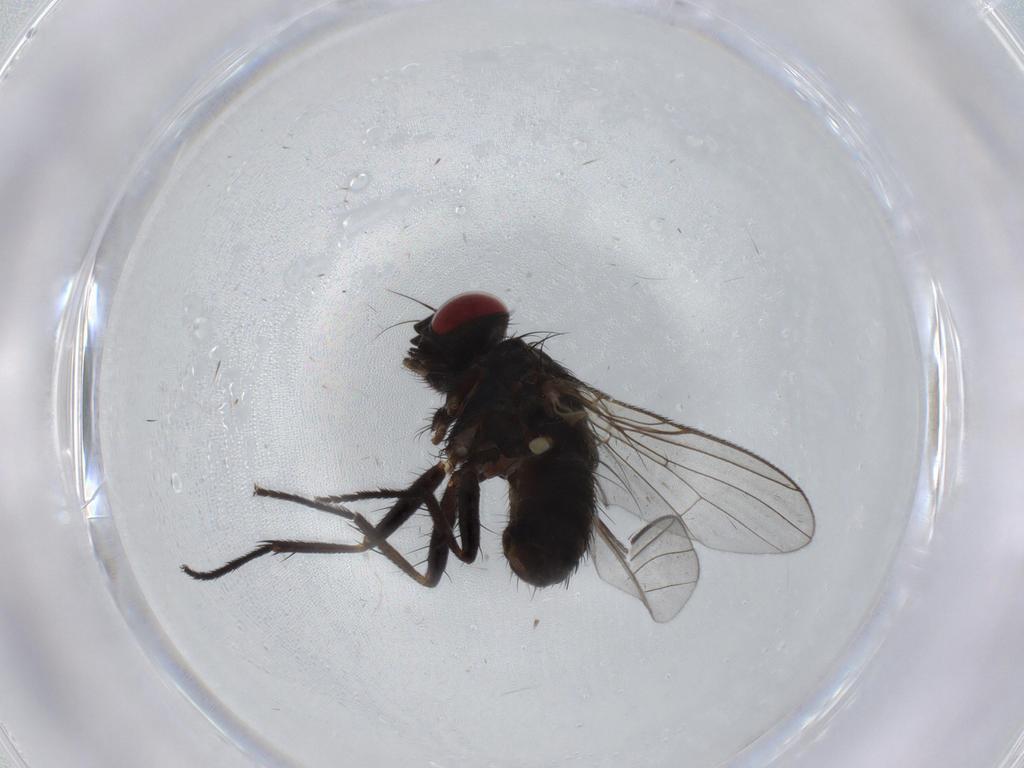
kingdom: Animalia
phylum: Arthropoda
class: Insecta
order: Diptera
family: Muscidae
